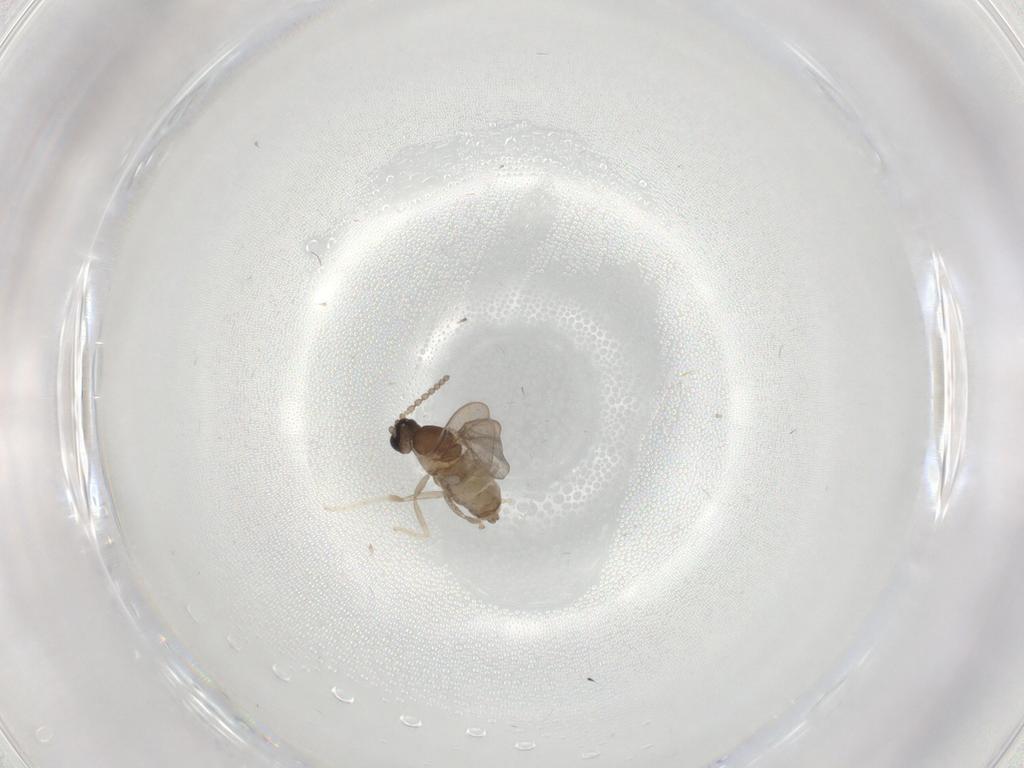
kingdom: Animalia
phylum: Arthropoda
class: Insecta
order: Diptera
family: Cecidomyiidae
